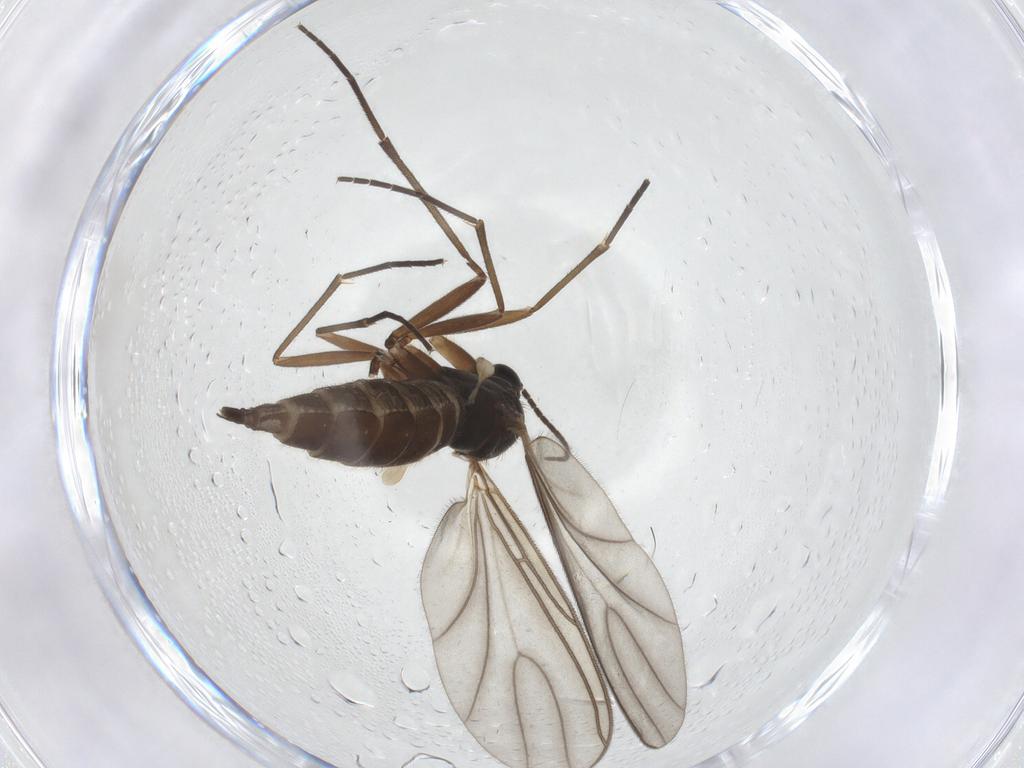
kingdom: Animalia
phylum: Arthropoda
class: Insecta
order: Diptera
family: Sciaridae
